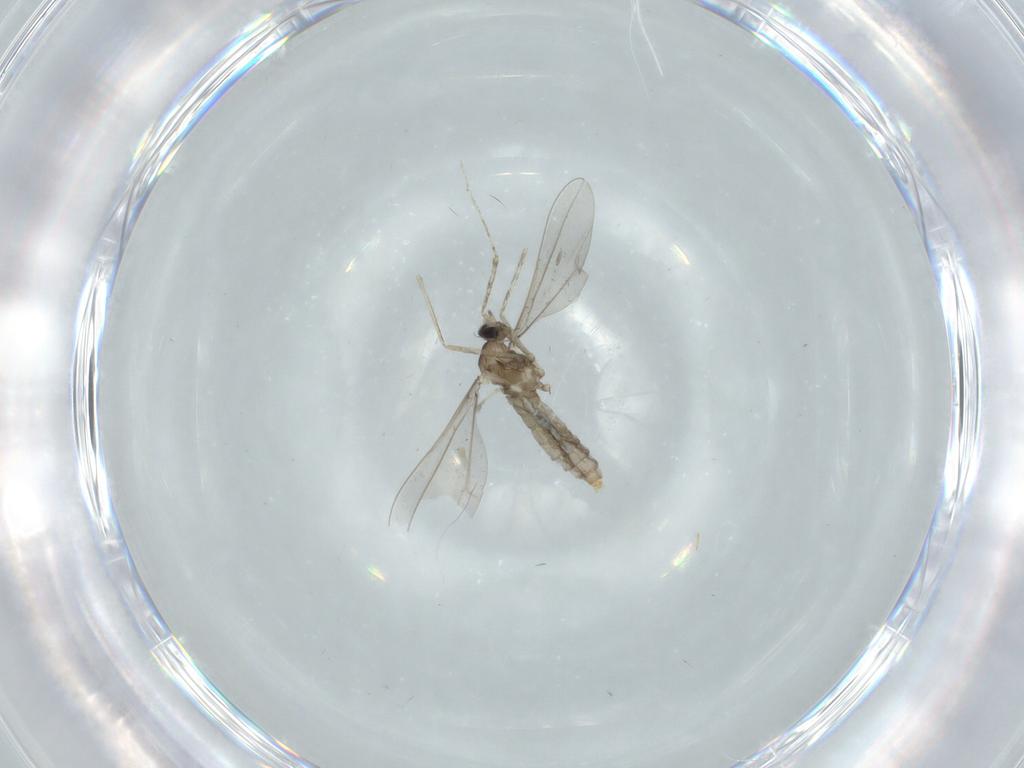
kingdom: Animalia
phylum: Arthropoda
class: Insecta
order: Diptera
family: Cecidomyiidae
